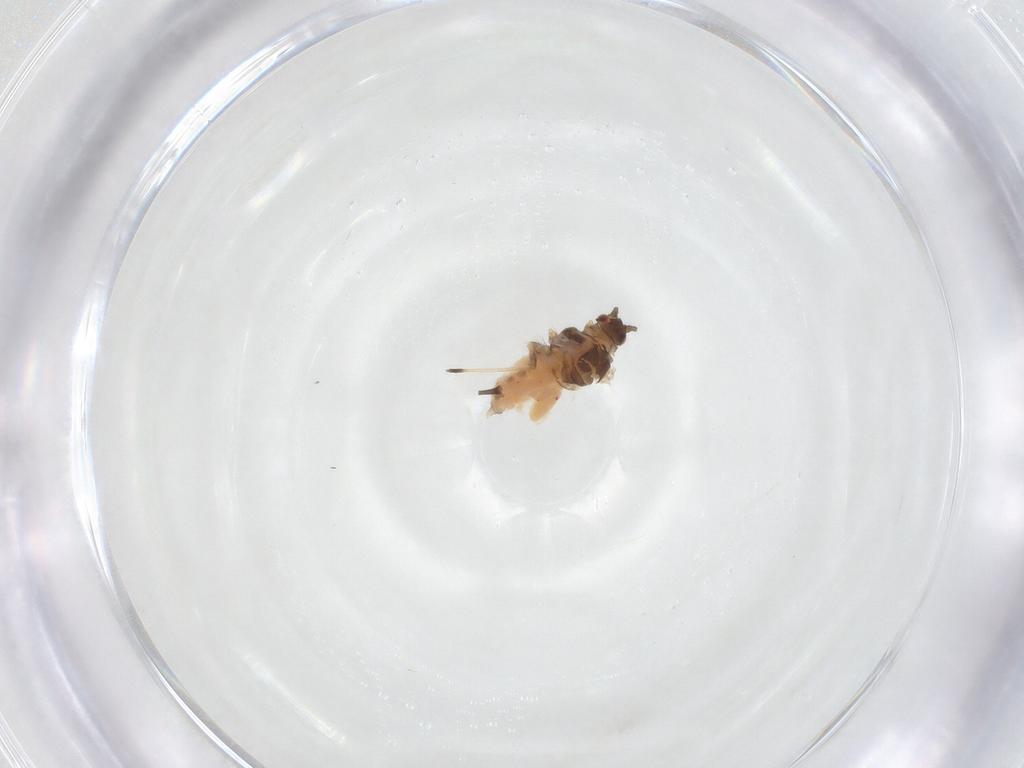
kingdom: Animalia
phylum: Arthropoda
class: Insecta
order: Hemiptera
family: Aphididae
